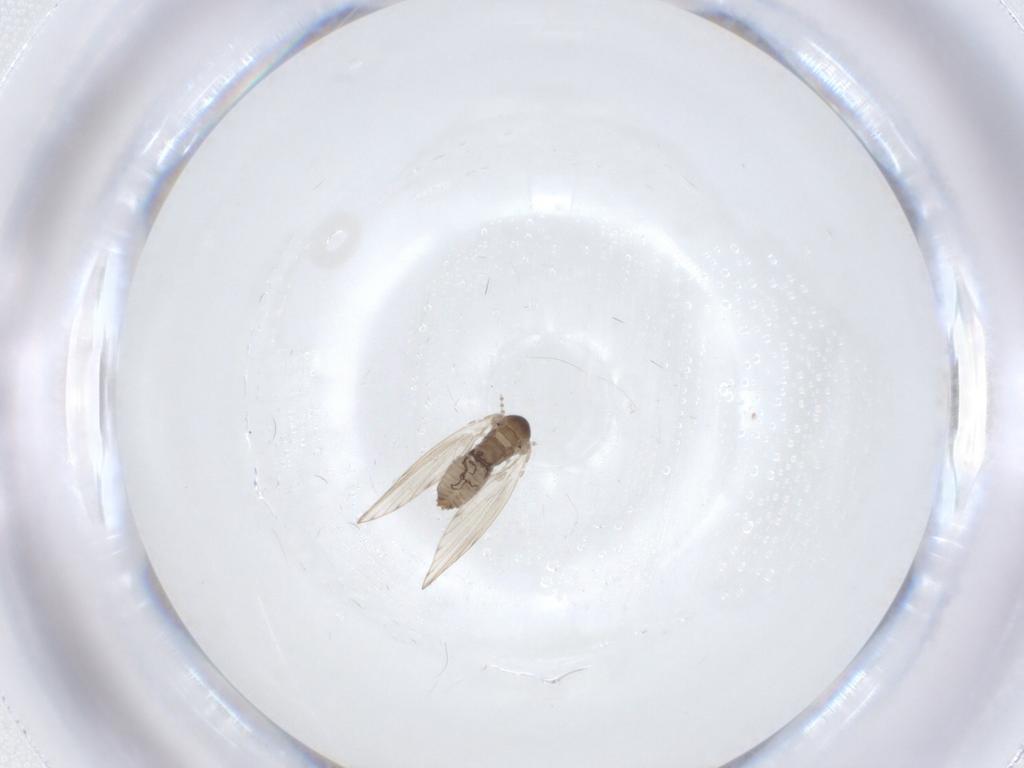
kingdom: Animalia
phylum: Arthropoda
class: Insecta
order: Diptera
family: Psychodidae
